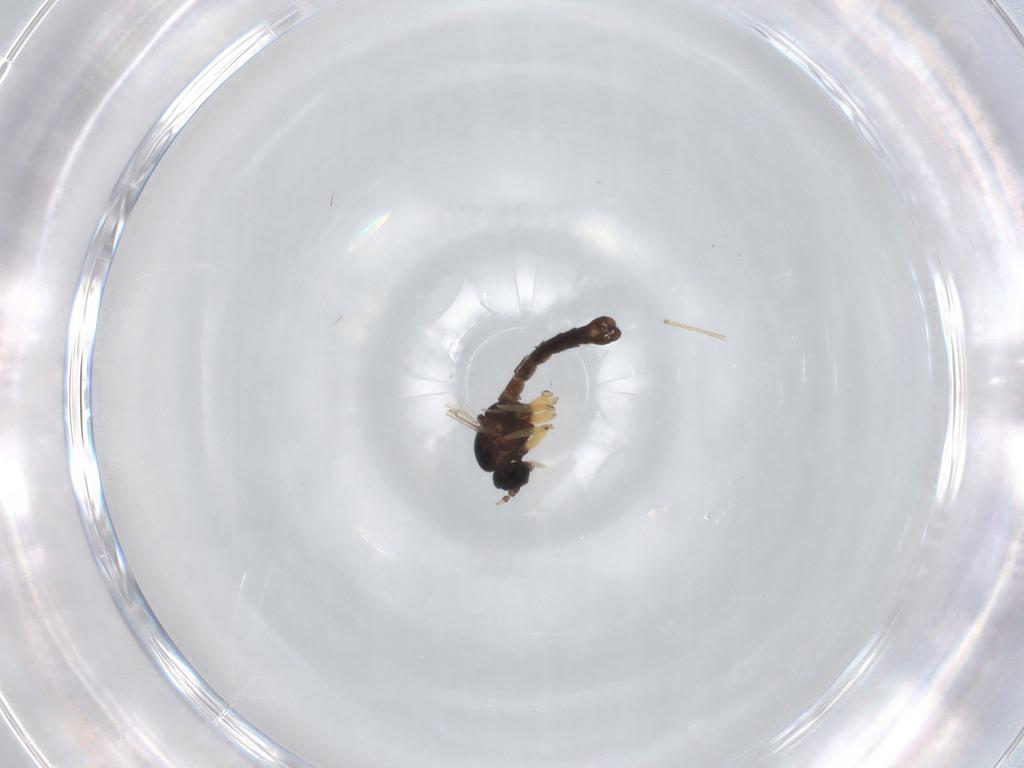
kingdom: Animalia
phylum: Arthropoda
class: Insecta
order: Diptera
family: Sciaridae
